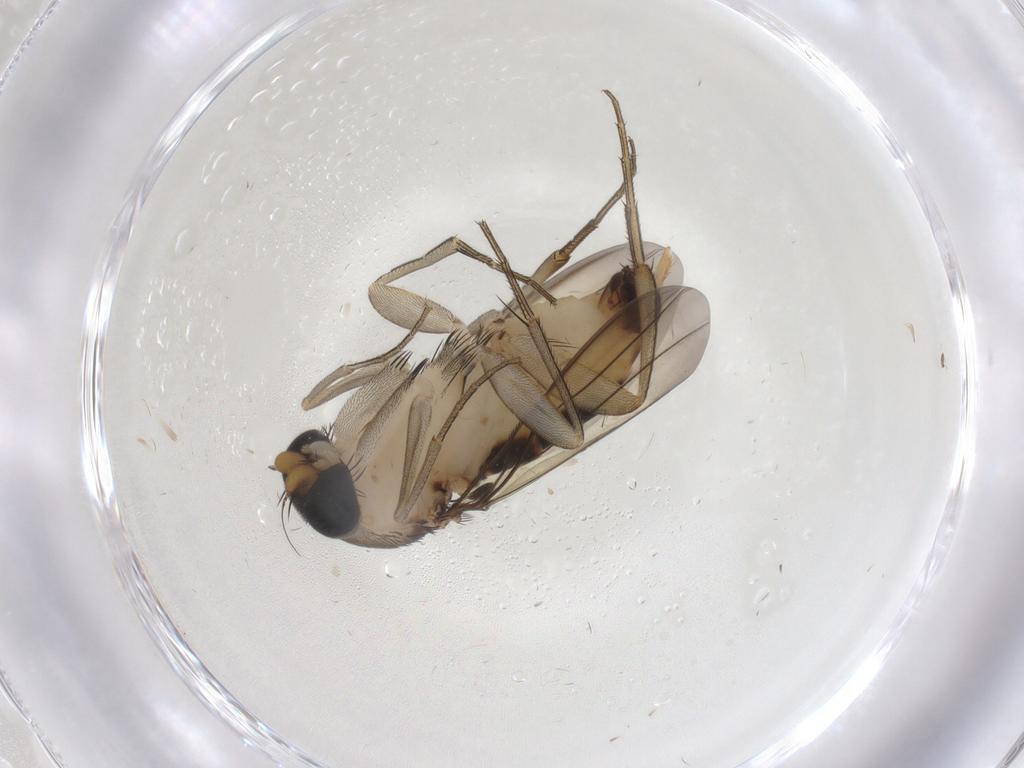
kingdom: Animalia
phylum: Arthropoda
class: Insecta
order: Diptera
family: Phoridae
